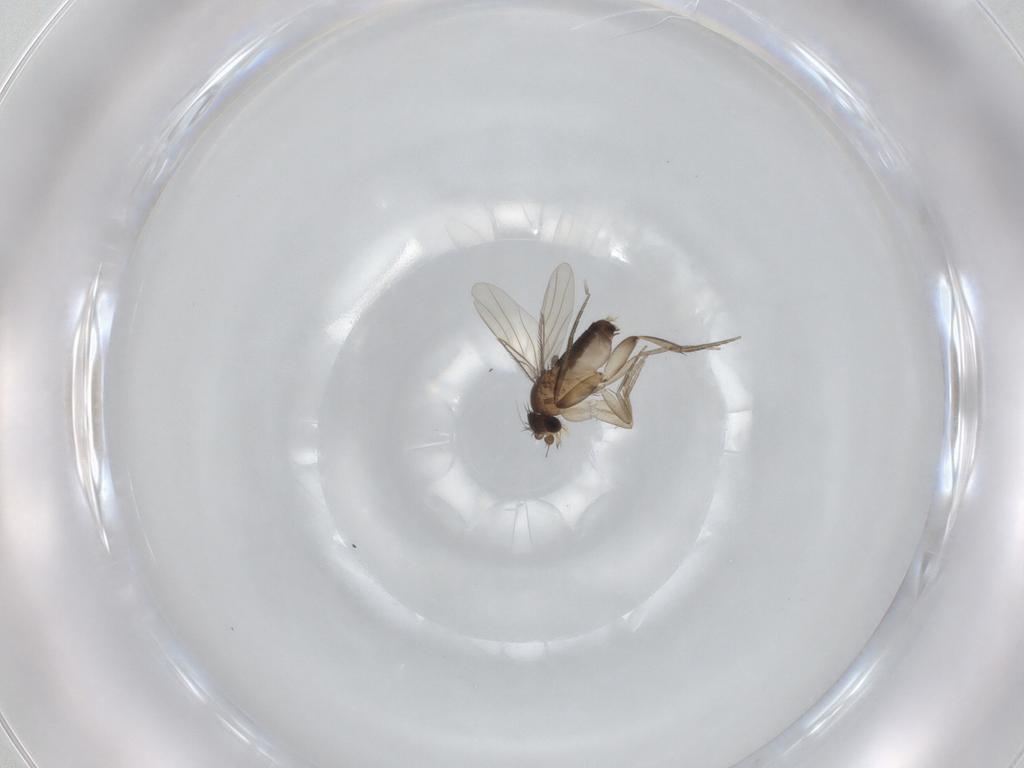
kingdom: Animalia
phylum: Arthropoda
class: Insecta
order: Diptera
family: Phoridae
